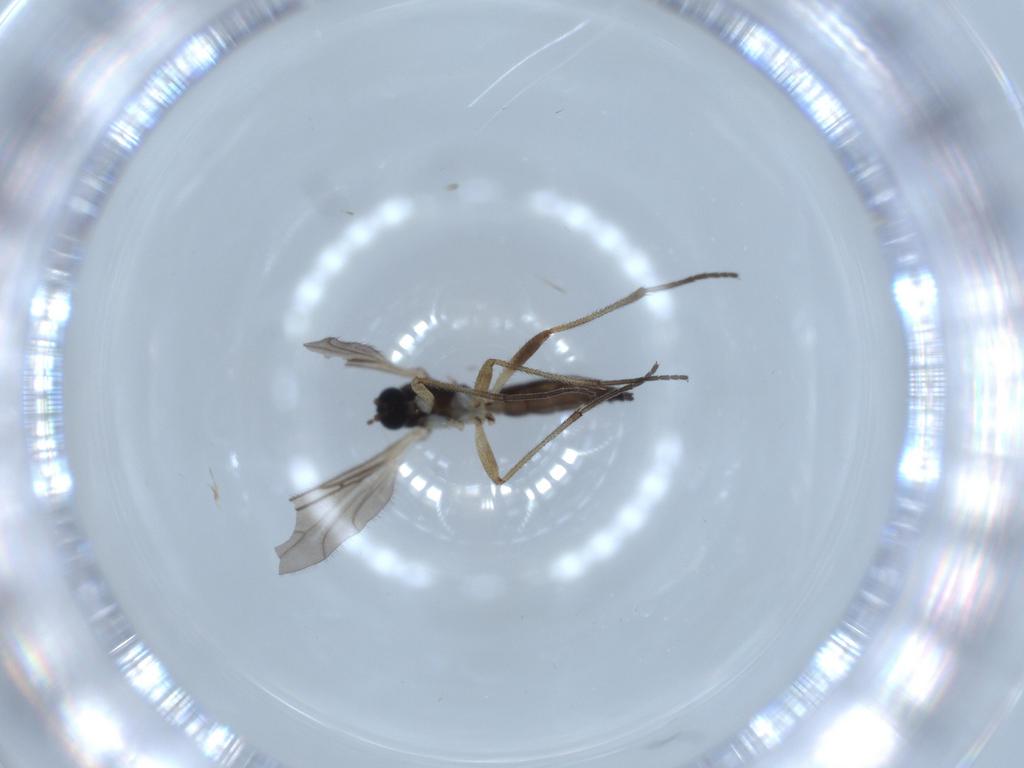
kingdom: Animalia
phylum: Arthropoda
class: Insecta
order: Diptera
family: Sciaridae
